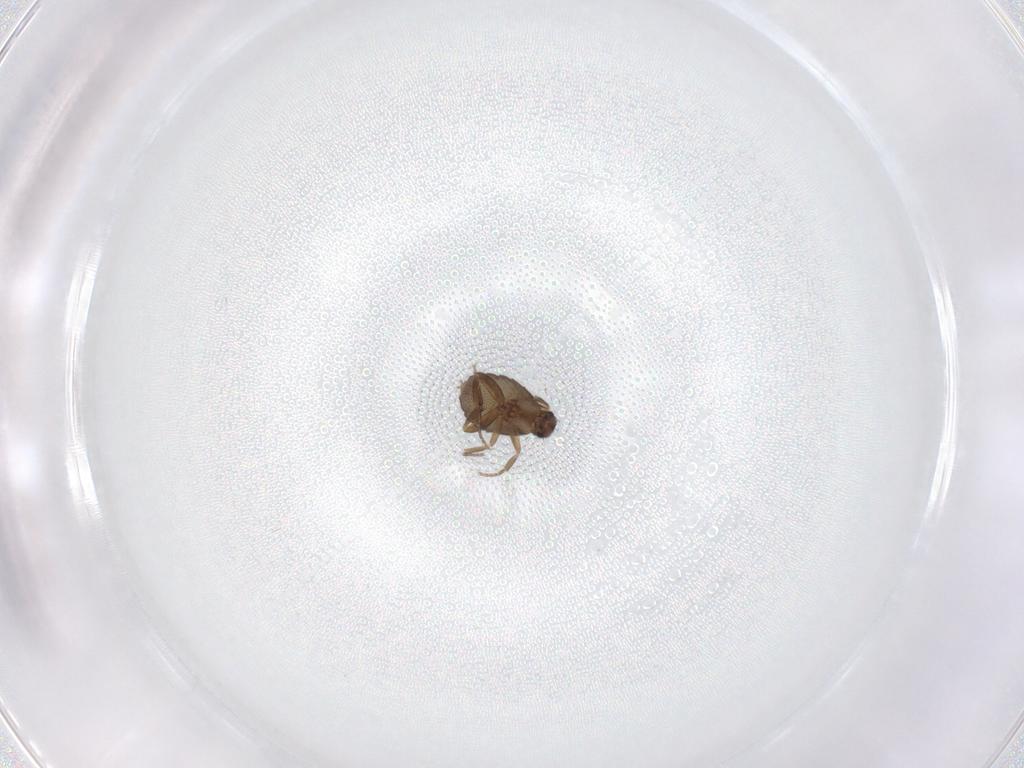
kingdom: Animalia
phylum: Arthropoda
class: Insecta
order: Diptera
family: Phoridae
